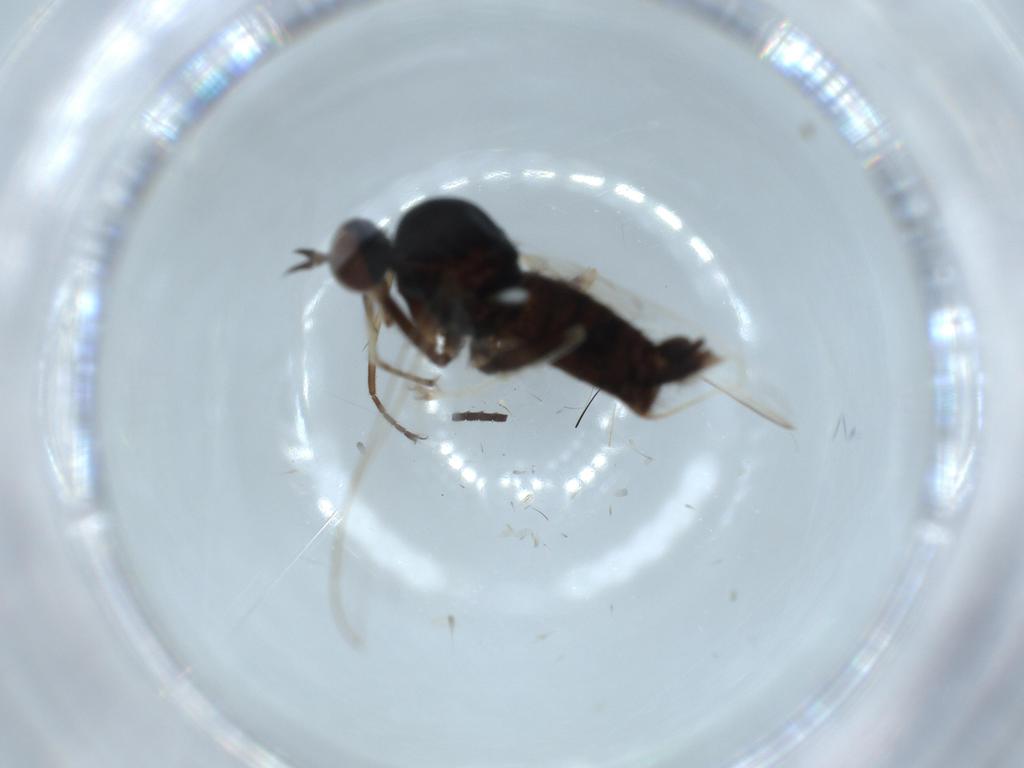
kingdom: Animalia
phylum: Arthropoda
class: Insecta
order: Diptera
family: Empididae
